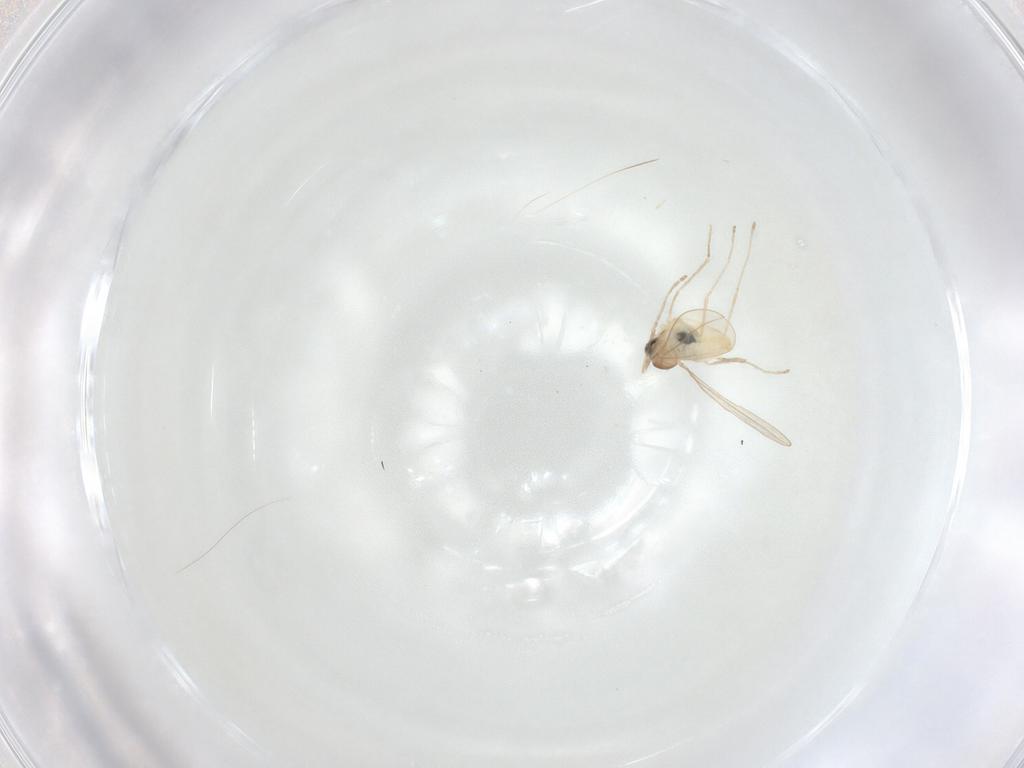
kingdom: Animalia
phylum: Arthropoda
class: Insecta
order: Diptera
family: Cecidomyiidae
